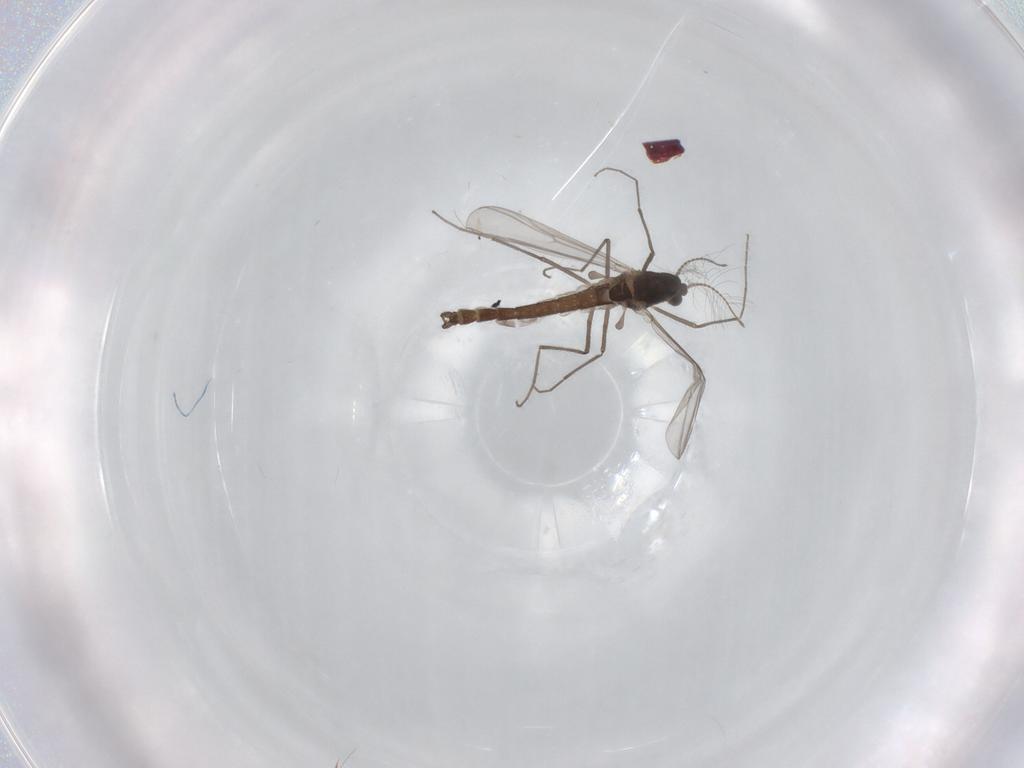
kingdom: Animalia
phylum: Arthropoda
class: Insecta
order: Diptera
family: Chironomidae
